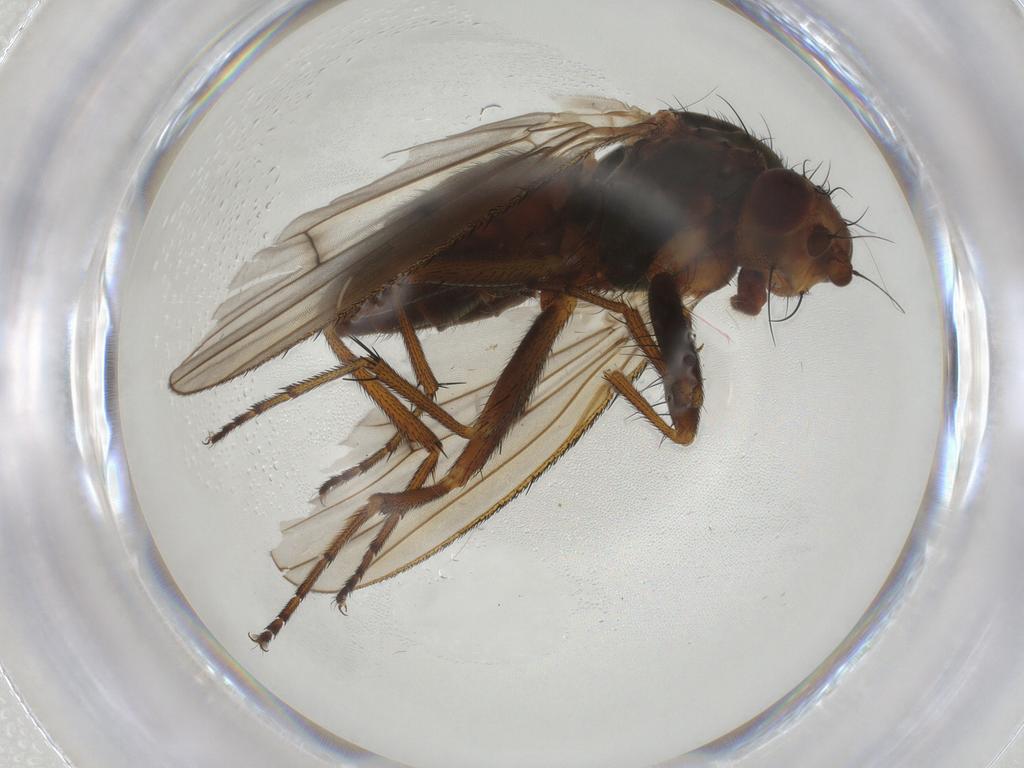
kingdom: Animalia
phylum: Arthropoda
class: Insecta
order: Diptera
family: Heleomyzidae
